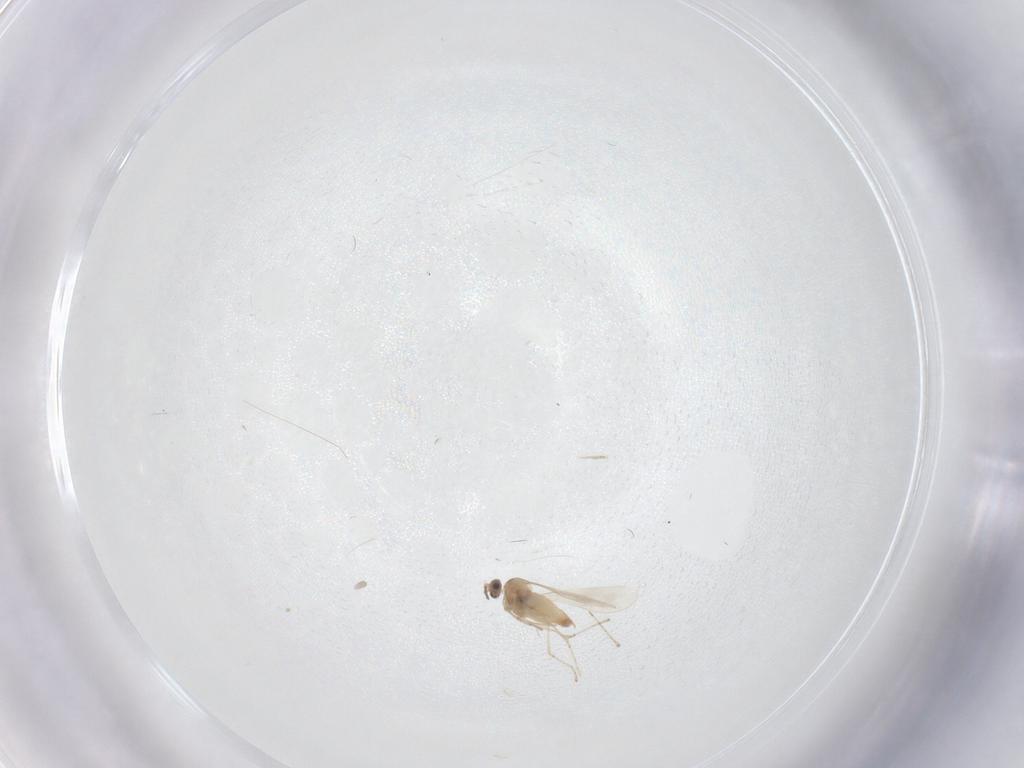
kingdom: Animalia
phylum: Arthropoda
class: Insecta
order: Diptera
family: Cecidomyiidae
